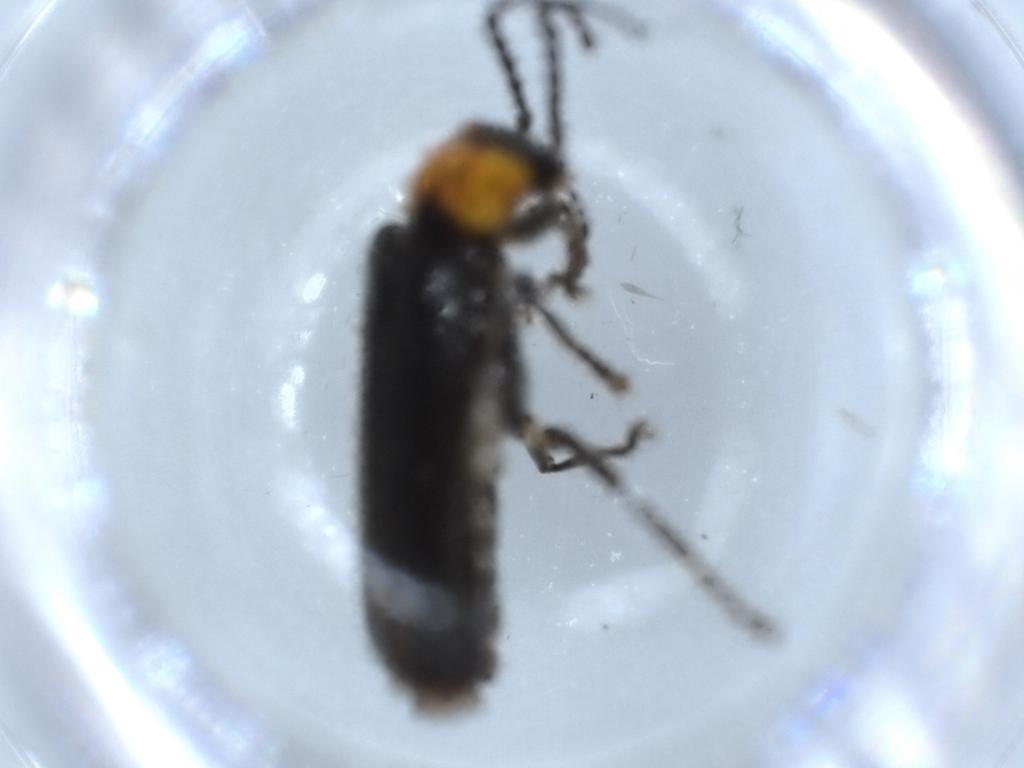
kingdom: Animalia
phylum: Arthropoda
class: Insecta
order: Coleoptera
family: Cantharidae
